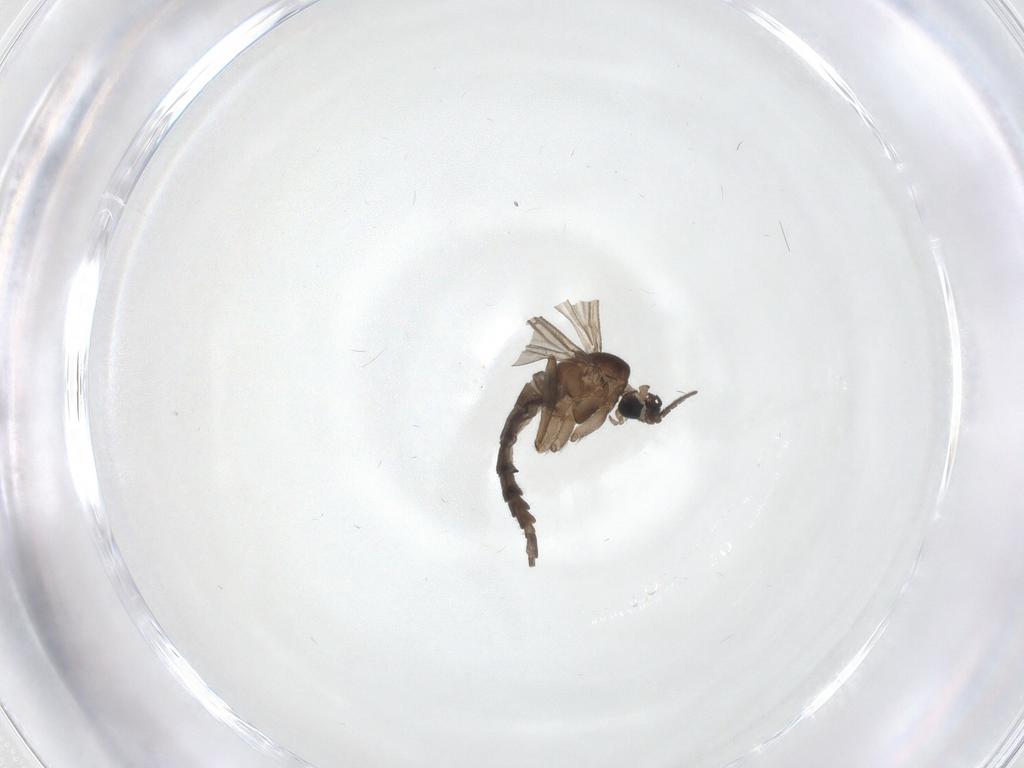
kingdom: Animalia
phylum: Arthropoda
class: Insecta
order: Diptera
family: Sciaridae
